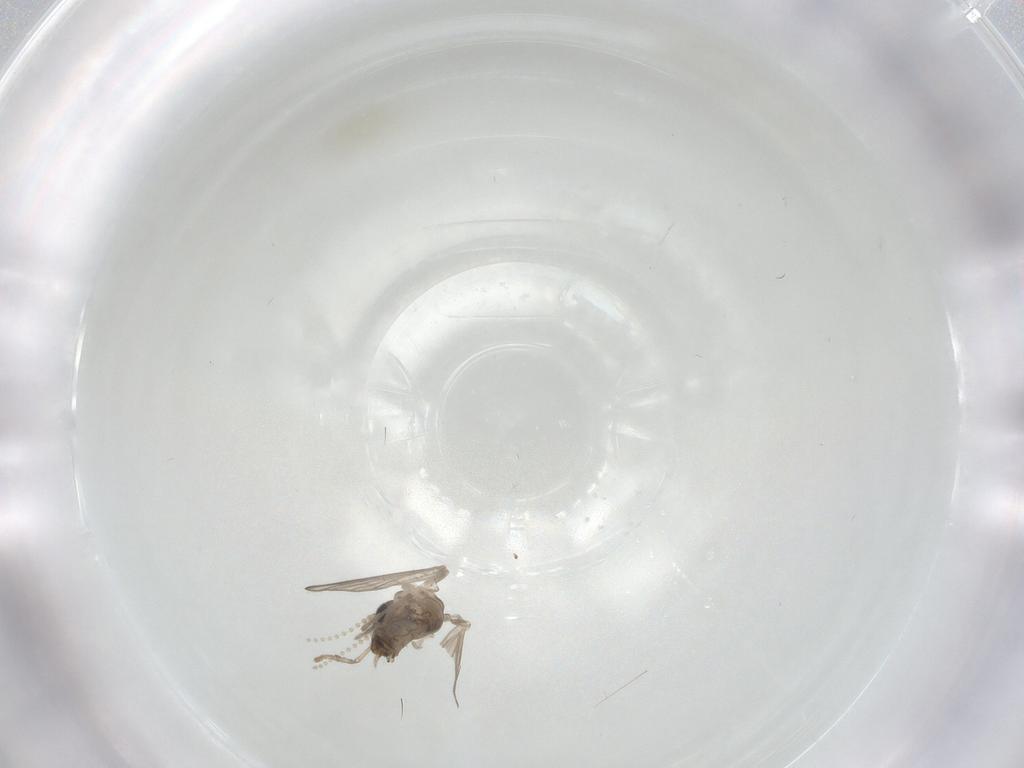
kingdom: Animalia
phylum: Arthropoda
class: Insecta
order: Diptera
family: Psychodidae
